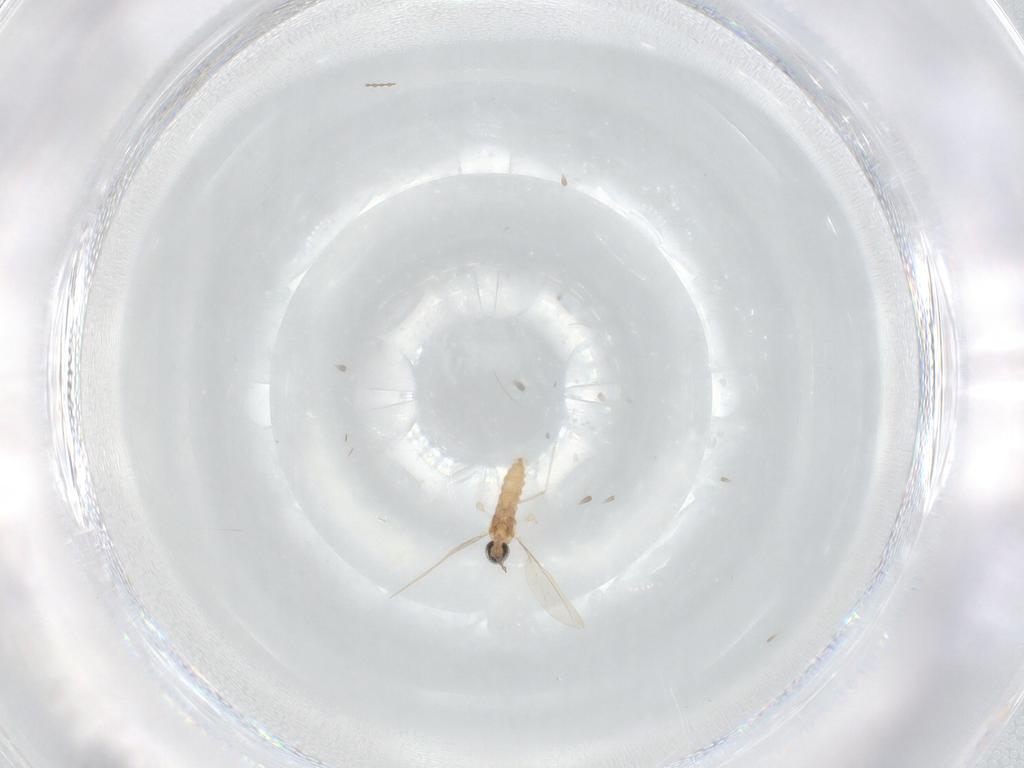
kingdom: Animalia
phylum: Arthropoda
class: Insecta
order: Diptera
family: Cecidomyiidae
